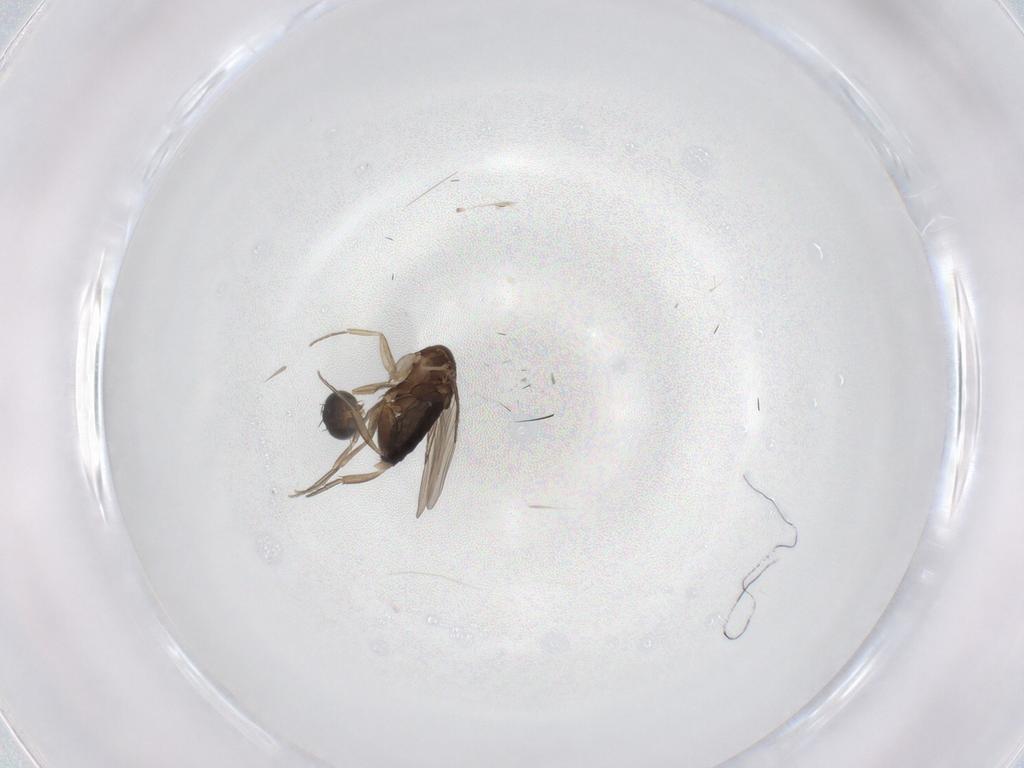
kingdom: Animalia
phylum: Arthropoda
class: Insecta
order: Diptera
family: Phoridae
